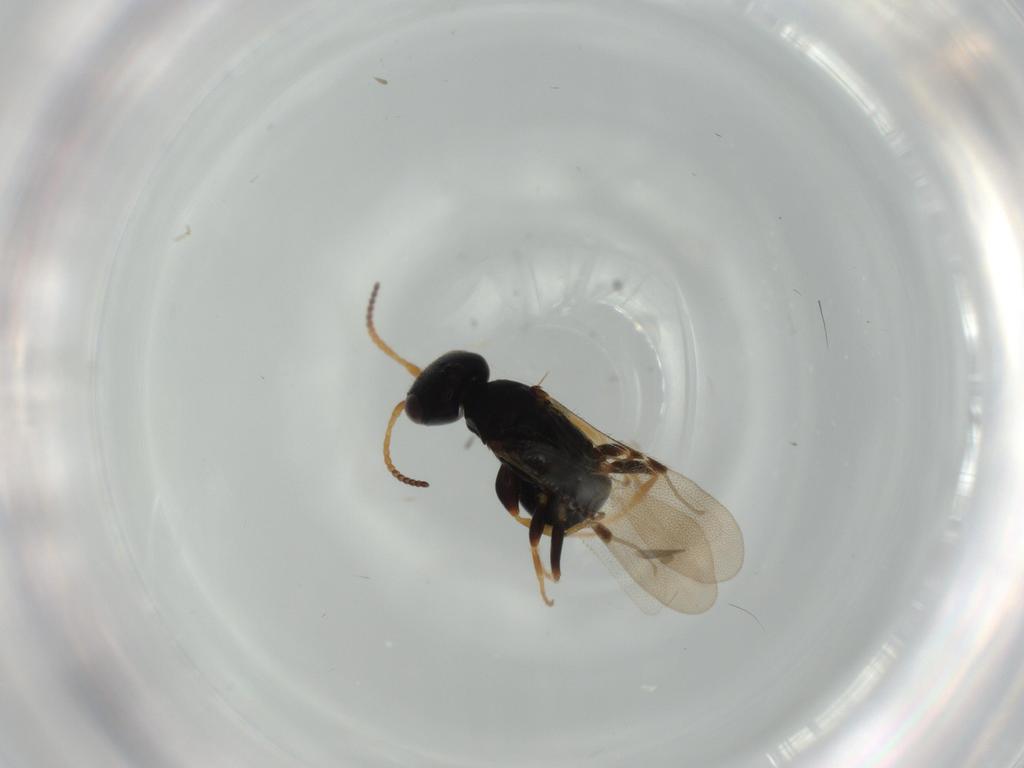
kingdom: Animalia
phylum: Arthropoda
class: Insecta
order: Hymenoptera
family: Bethylidae
